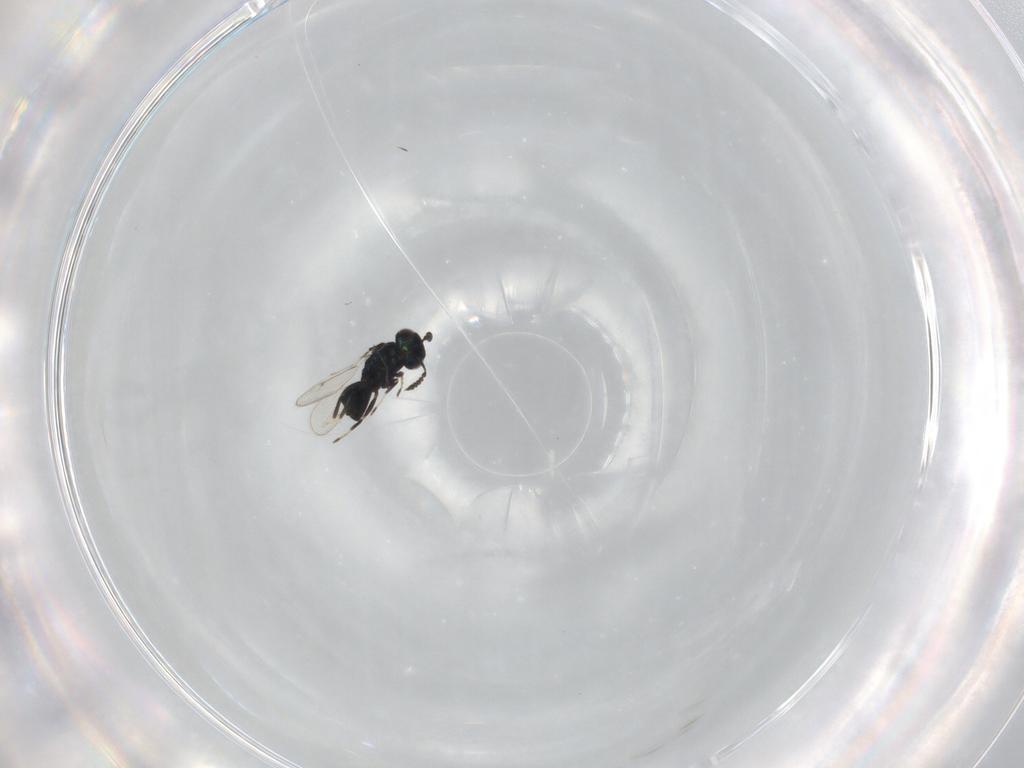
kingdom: Animalia
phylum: Arthropoda
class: Insecta
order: Hymenoptera
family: Eulophidae
